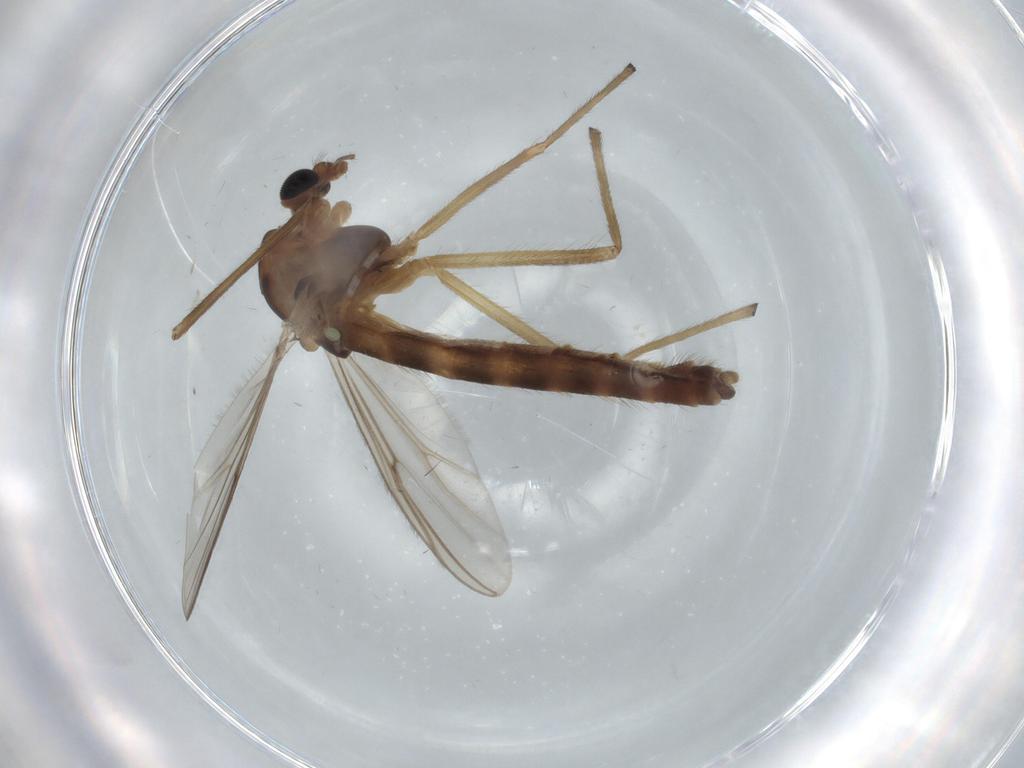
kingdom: Animalia
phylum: Arthropoda
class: Insecta
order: Diptera
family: Chironomidae
